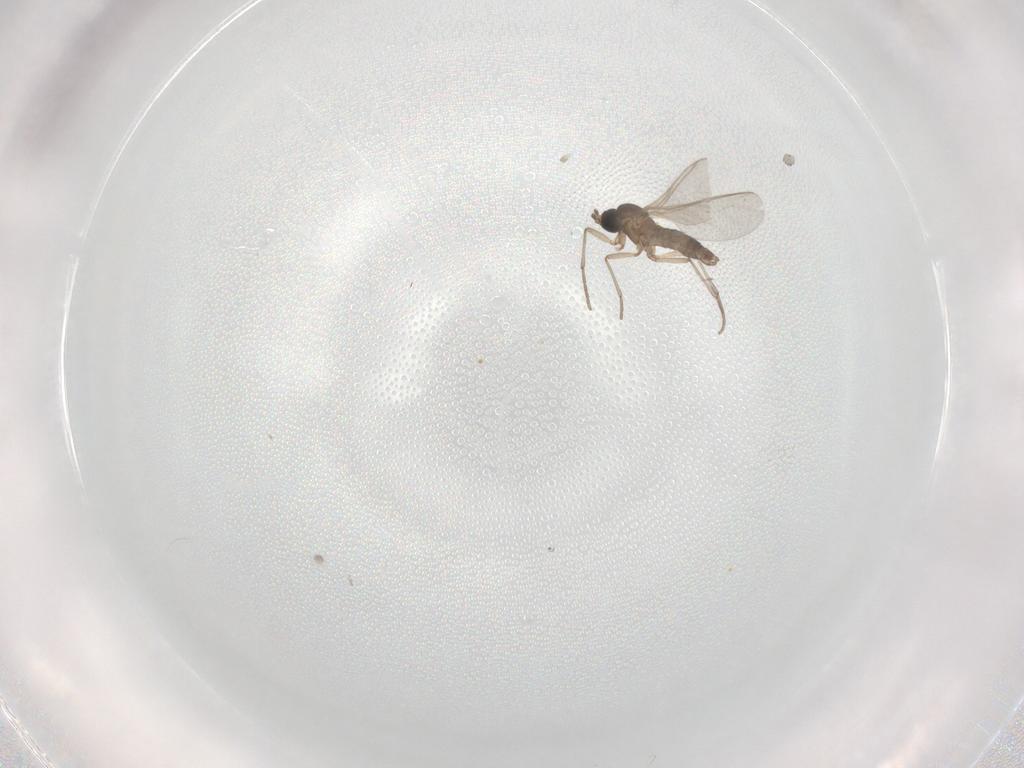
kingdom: Animalia
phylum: Arthropoda
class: Insecta
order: Diptera
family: Sciaridae
